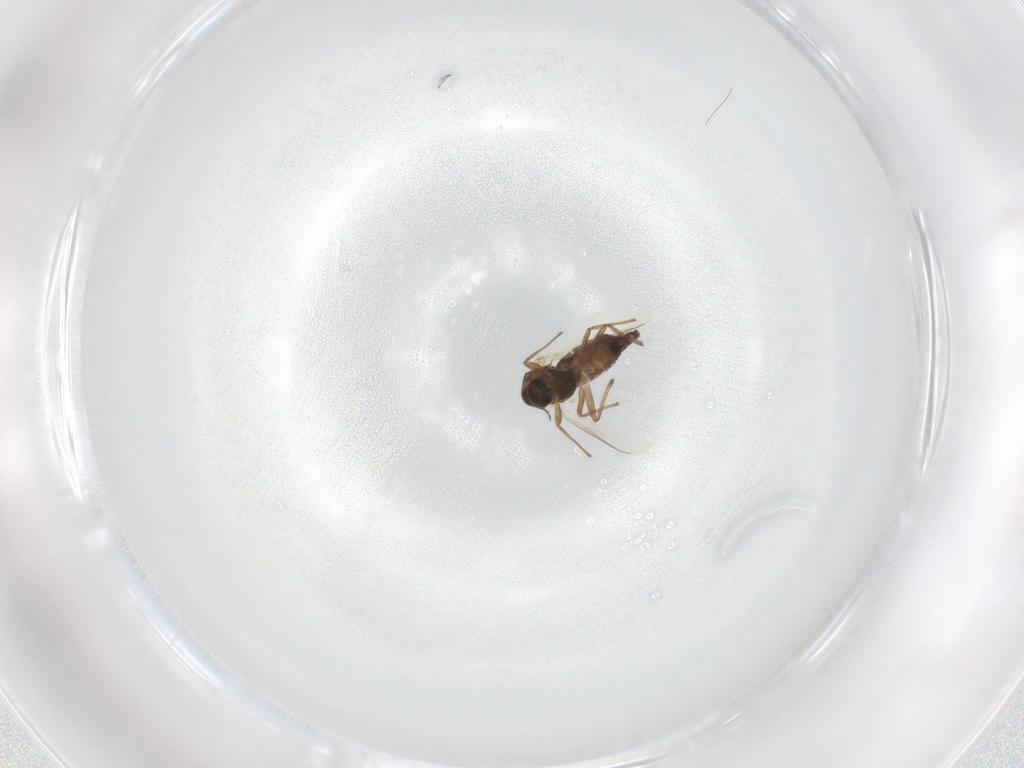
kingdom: Animalia
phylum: Arthropoda
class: Insecta
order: Diptera
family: Chironomidae
